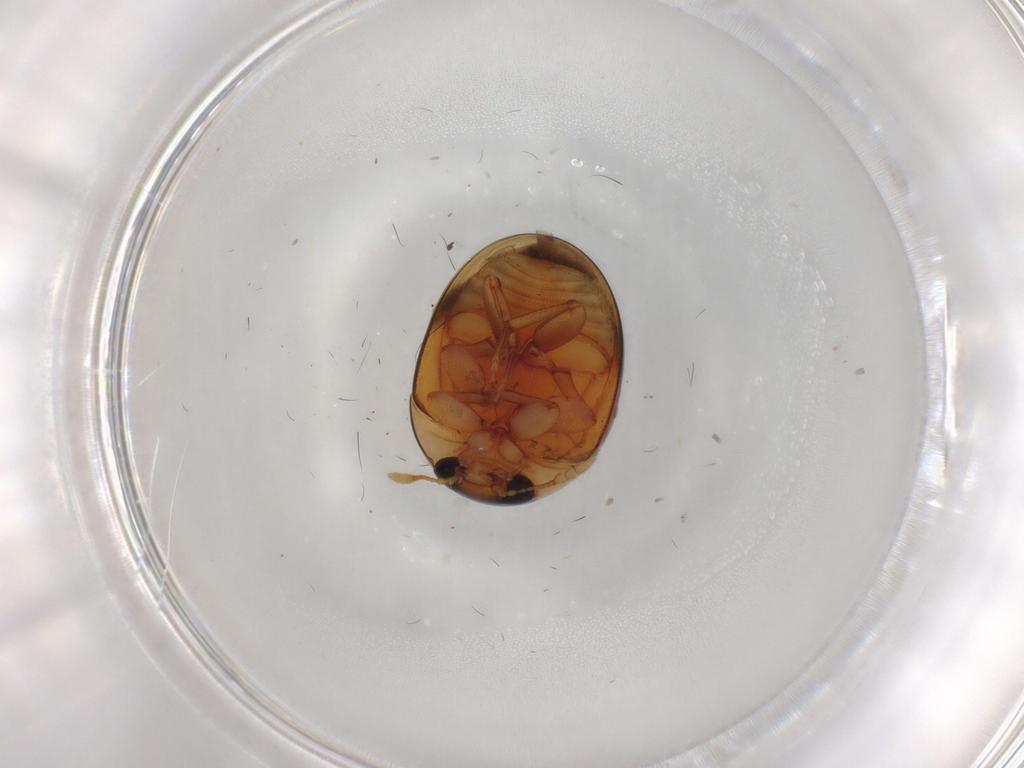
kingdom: Animalia
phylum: Arthropoda
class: Insecta
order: Coleoptera
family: Phalacridae
